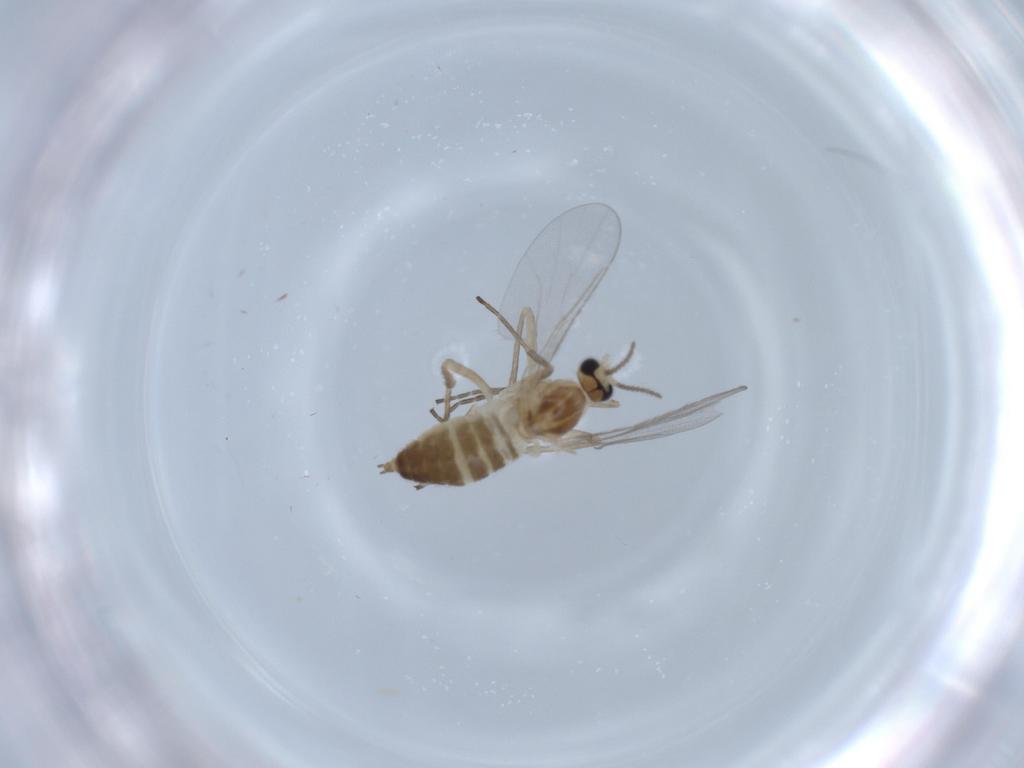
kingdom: Animalia
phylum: Arthropoda
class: Insecta
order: Diptera
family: Cecidomyiidae
